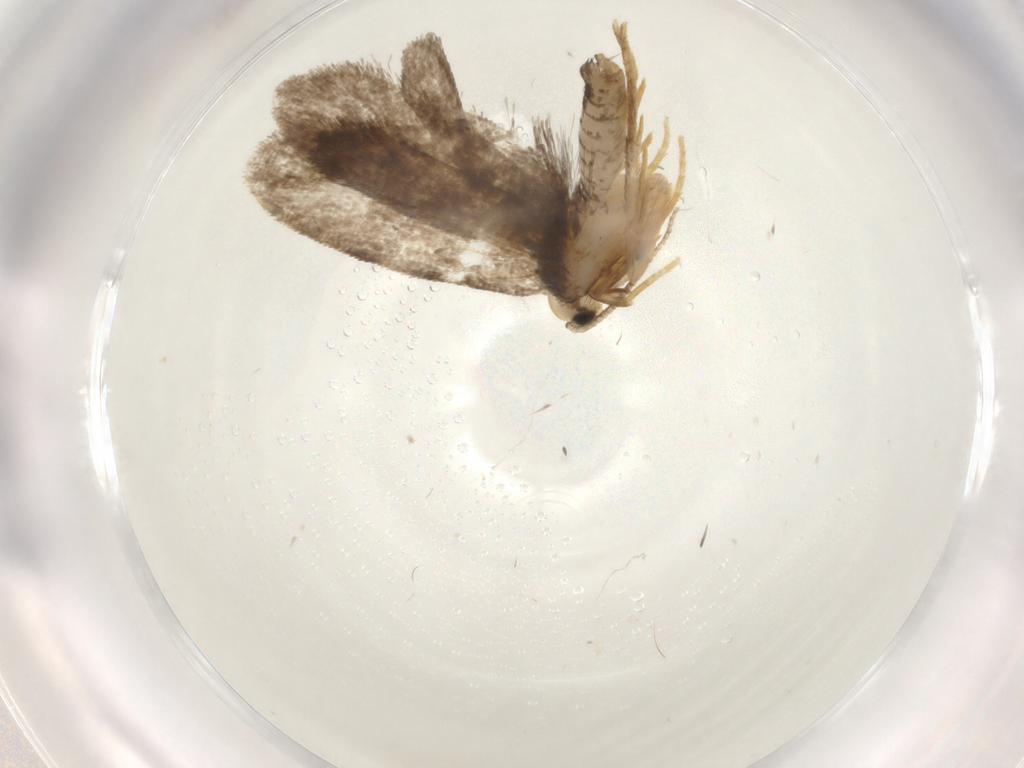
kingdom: Animalia
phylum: Arthropoda
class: Insecta
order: Lepidoptera
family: Psychidae
